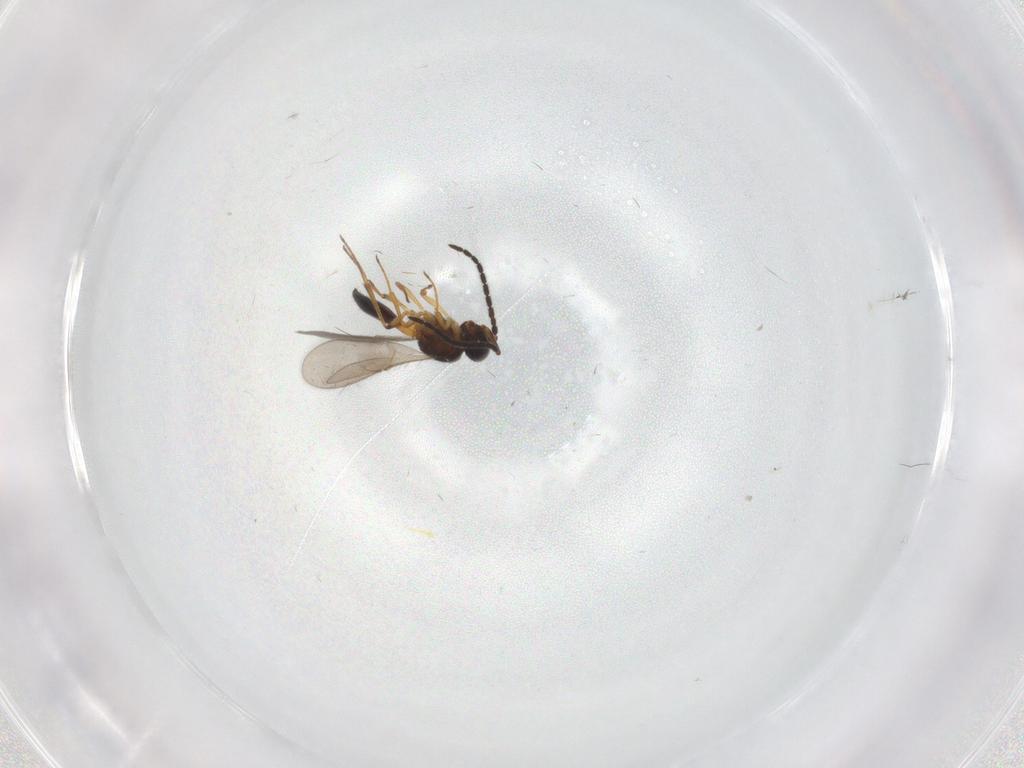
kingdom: Animalia
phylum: Arthropoda
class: Insecta
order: Hymenoptera
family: Scelionidae
